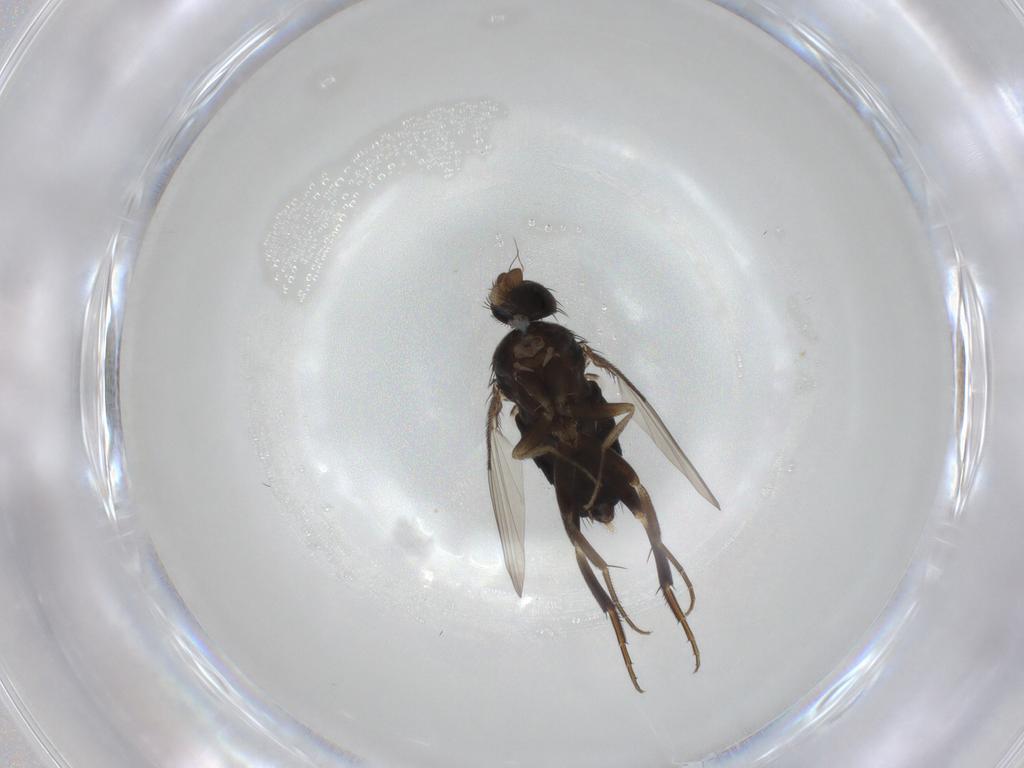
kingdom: Animalia
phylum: Arthropoda
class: Insecta
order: Diptera
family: Phoridae
